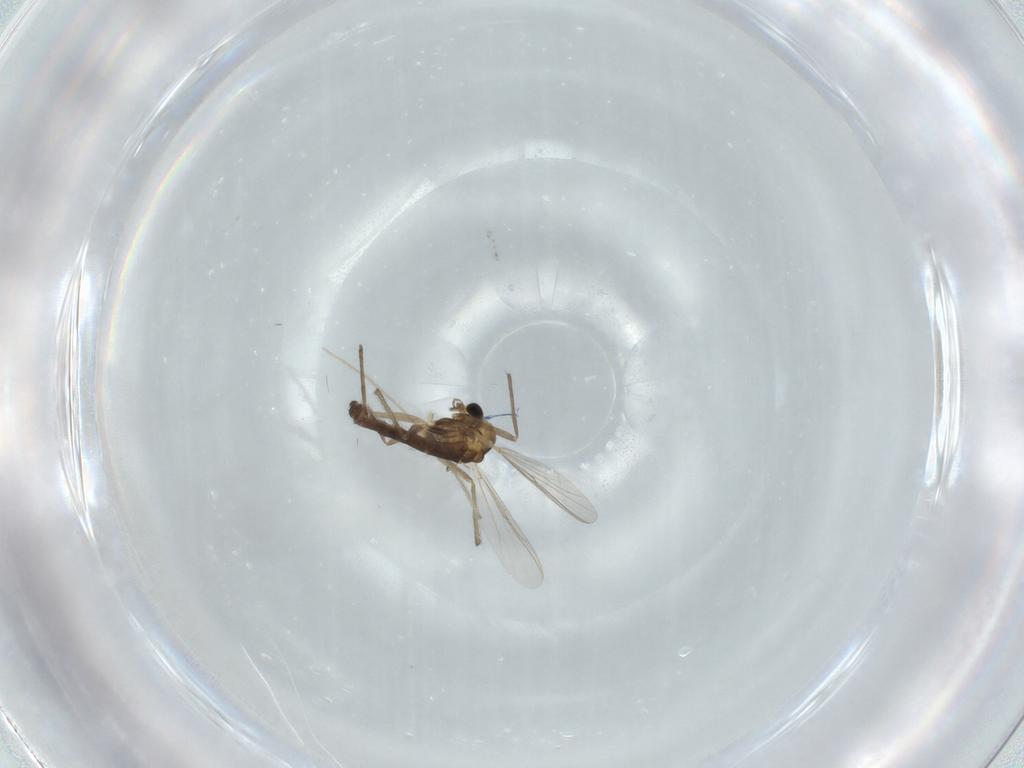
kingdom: Animalia
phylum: Arthropoda
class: Insecta
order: Diptera
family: Chironomidae
